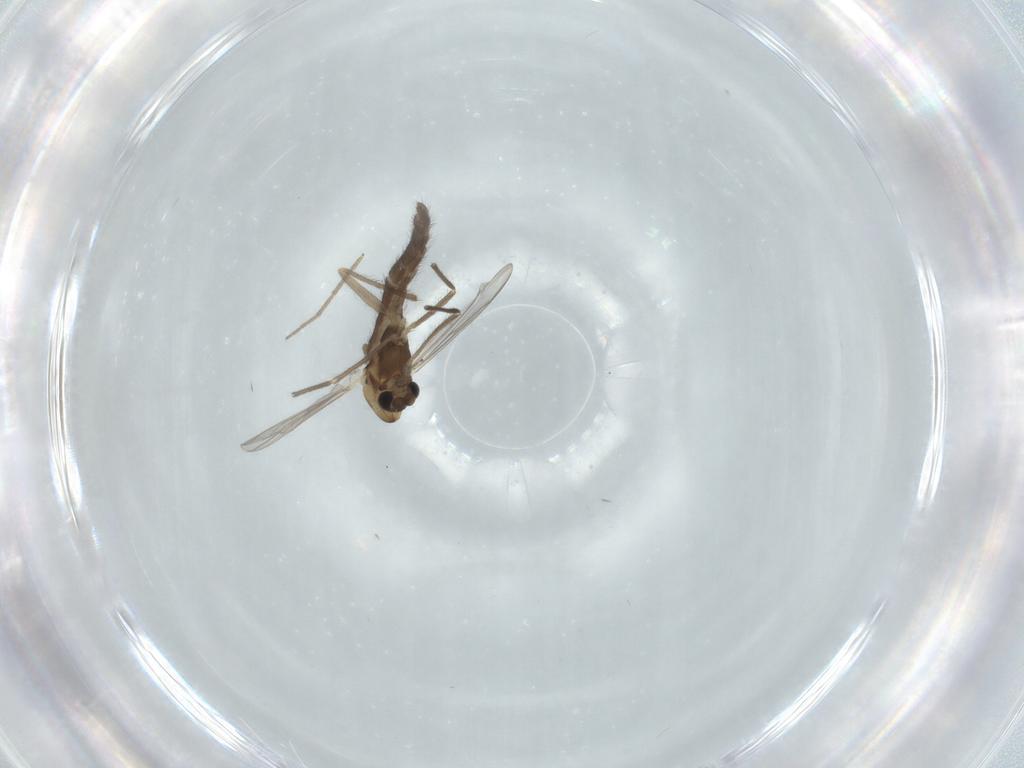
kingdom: Animalia
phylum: Arthropoda
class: Insecta
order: Diptera
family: Chironomidae
